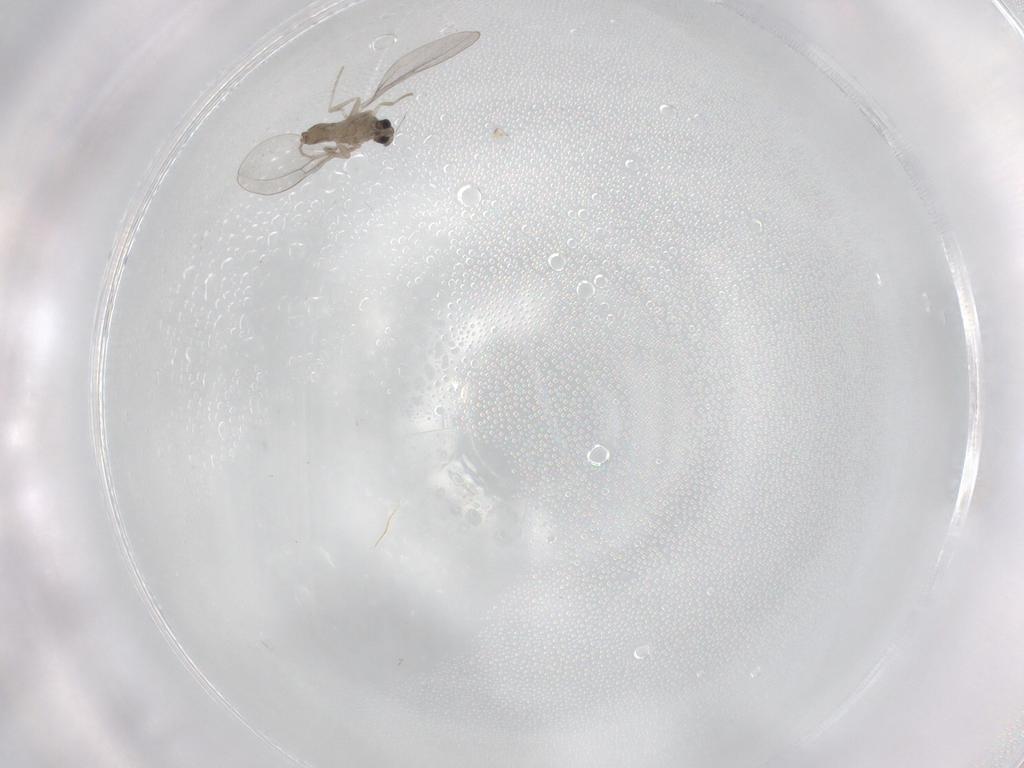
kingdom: Animalia
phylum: Arthropoda
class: Insecta
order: Diptera
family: Cecidomyiidae
